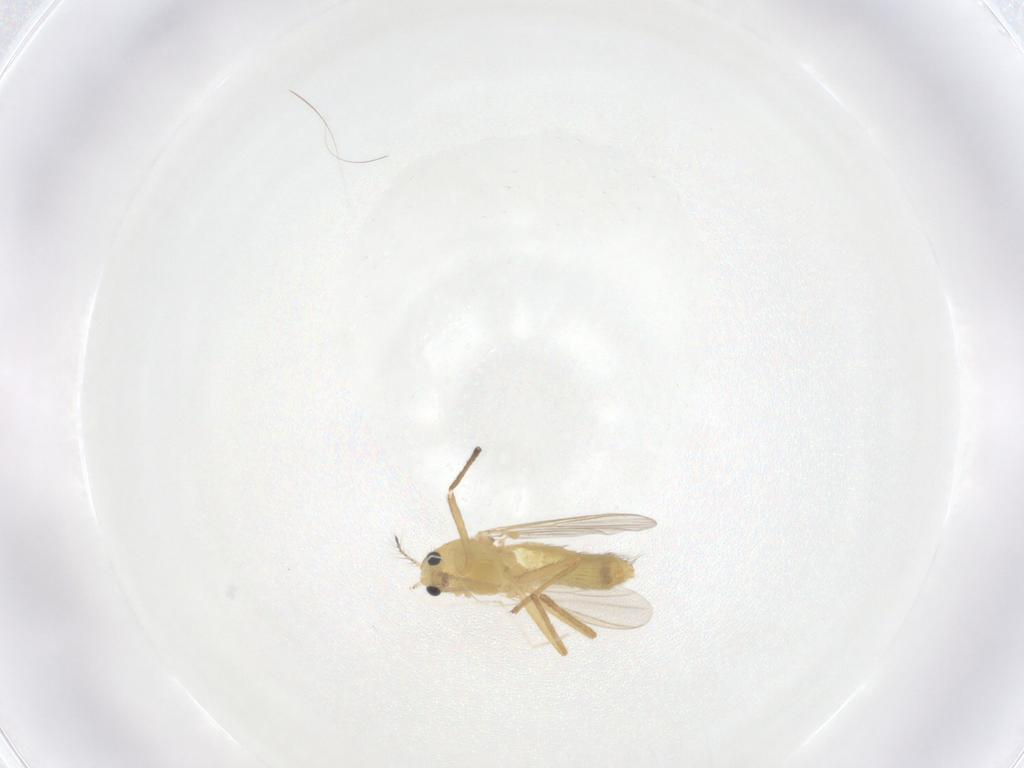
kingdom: Animalia
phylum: Arthropoda
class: Insecta
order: Diptera
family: Chironomidae
